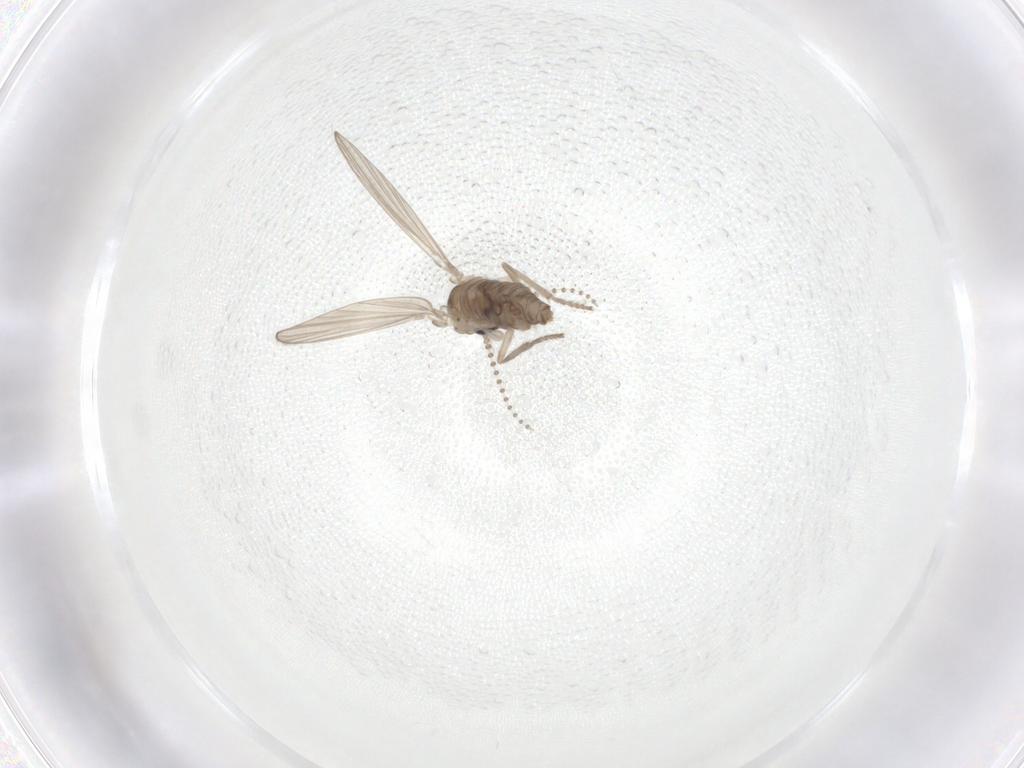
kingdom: Animalia
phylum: Arthropoda
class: Insecta
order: Diptera
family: Psychodidae
